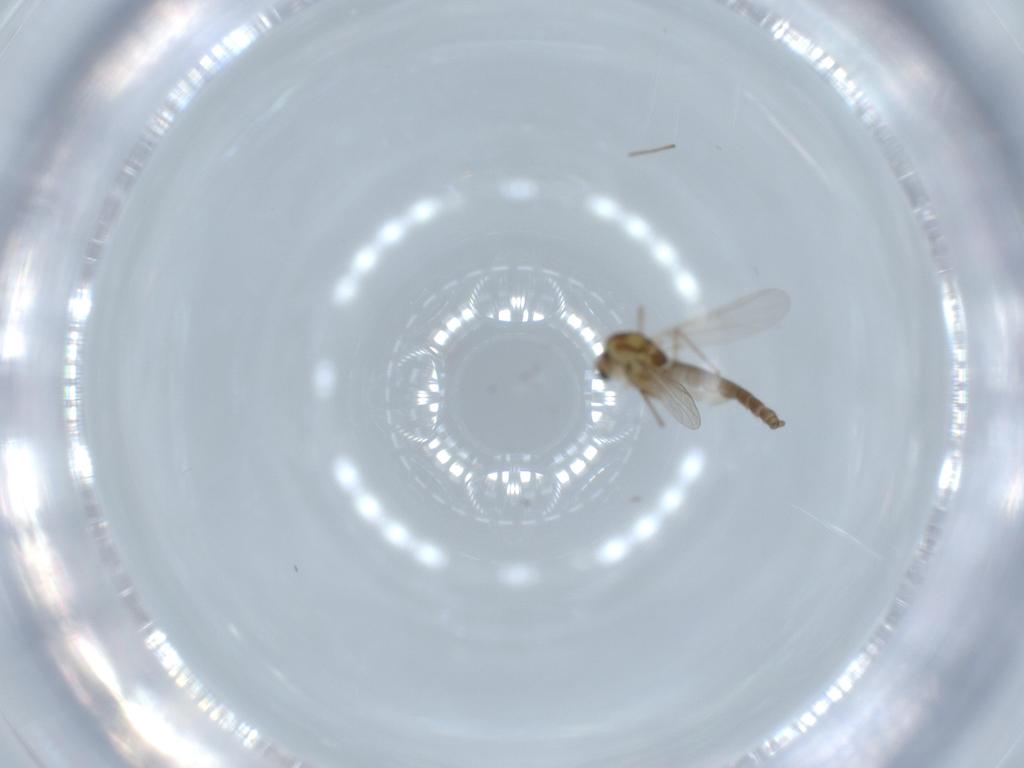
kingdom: Animalia
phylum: Arthropoda
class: Insecta
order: Diptera
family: Chironomidae
